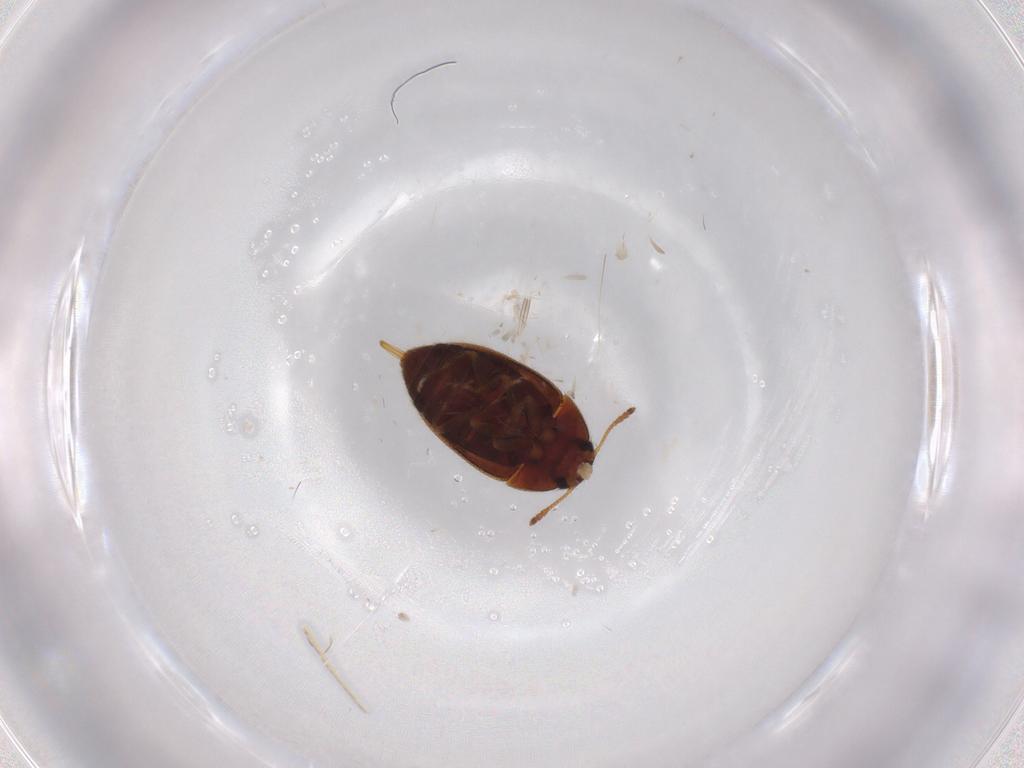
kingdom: Animalia
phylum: Arthropoda
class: Insecta
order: Coleoptera
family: Mycetophagidae
